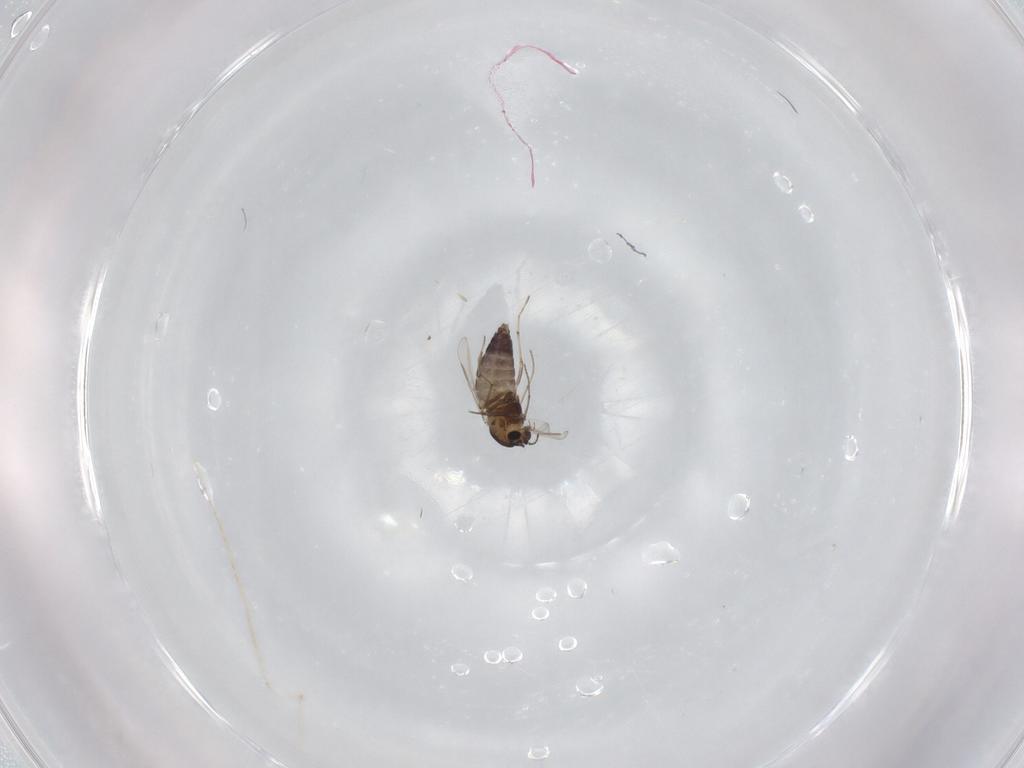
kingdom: Animalia
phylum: Arthropoda
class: Insecta
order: Diptera
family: Chironomidae
